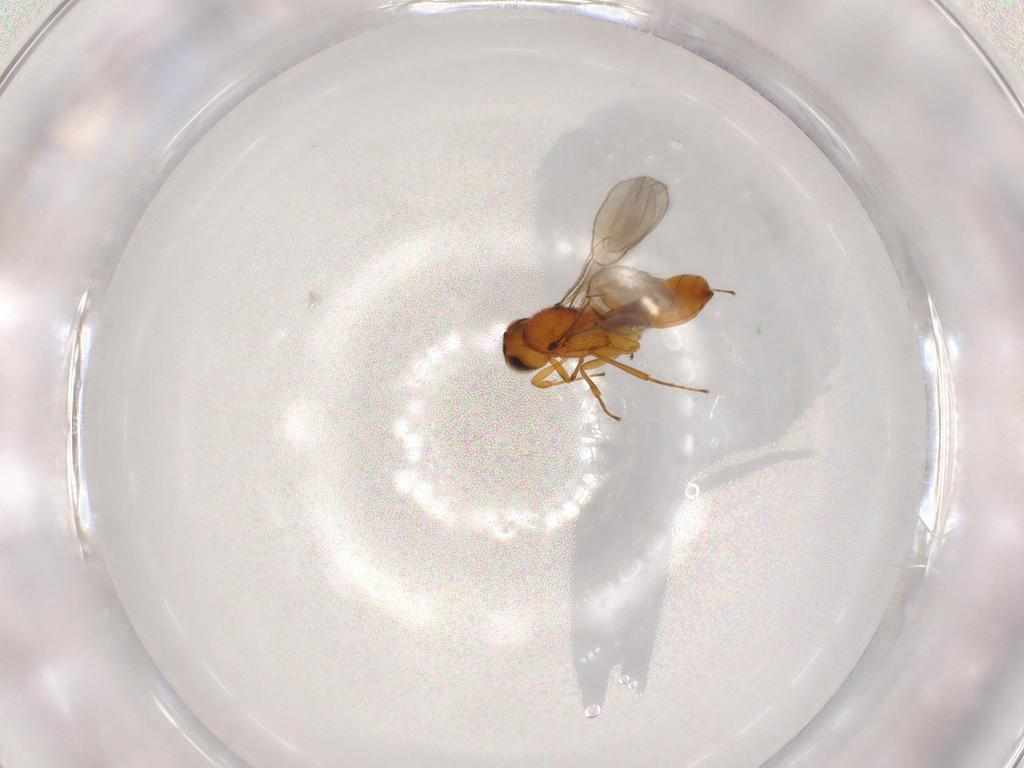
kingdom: Animalia
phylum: Arthropoda
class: Insecta
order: Hymenoptera
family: Scelionidae
